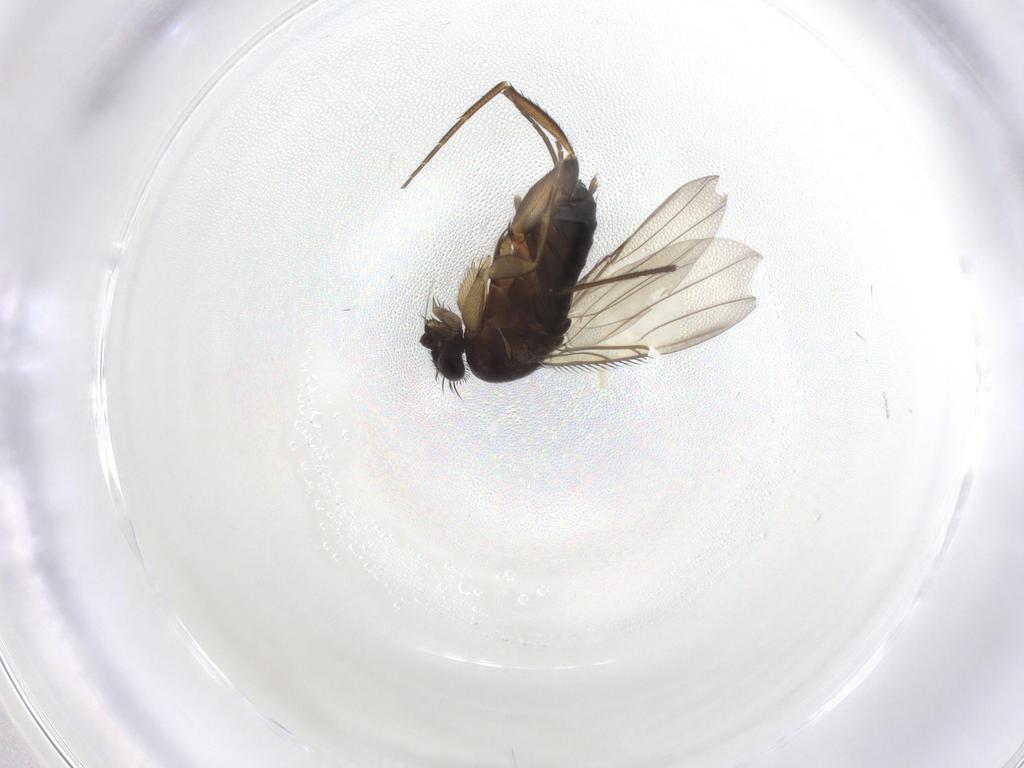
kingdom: Animalia
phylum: Arthropoda
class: Insecta
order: Diptera
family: Phoridae
